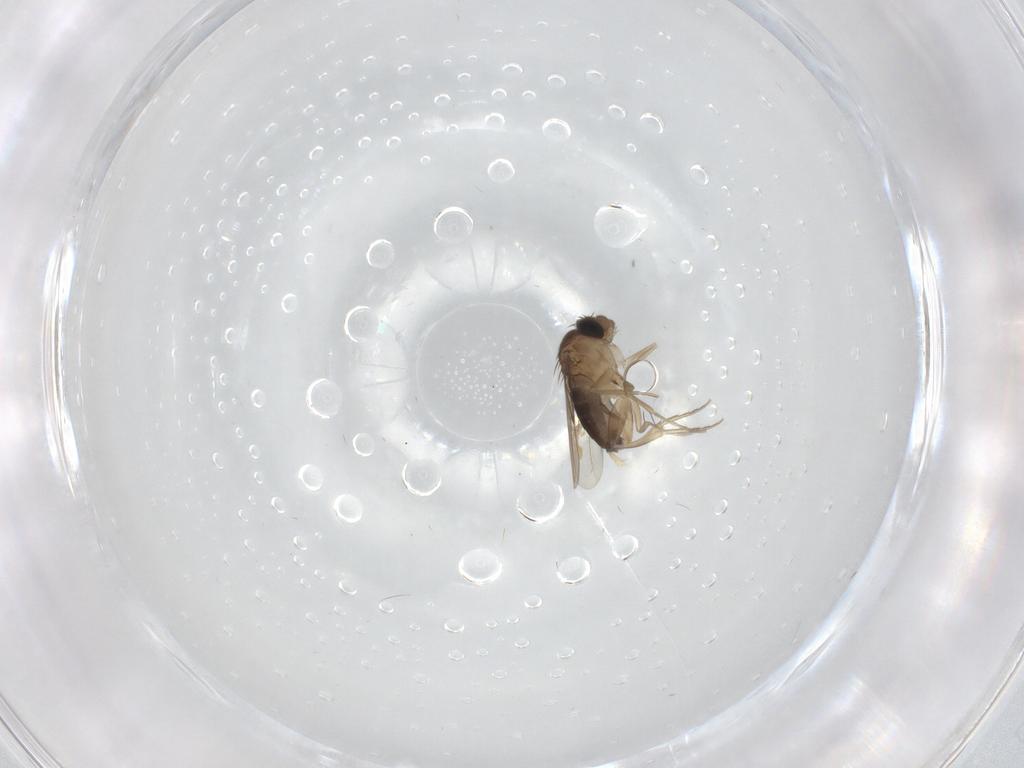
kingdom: Animalia
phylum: Arthropoda
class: Insecta
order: Diptera
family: Phoridae
